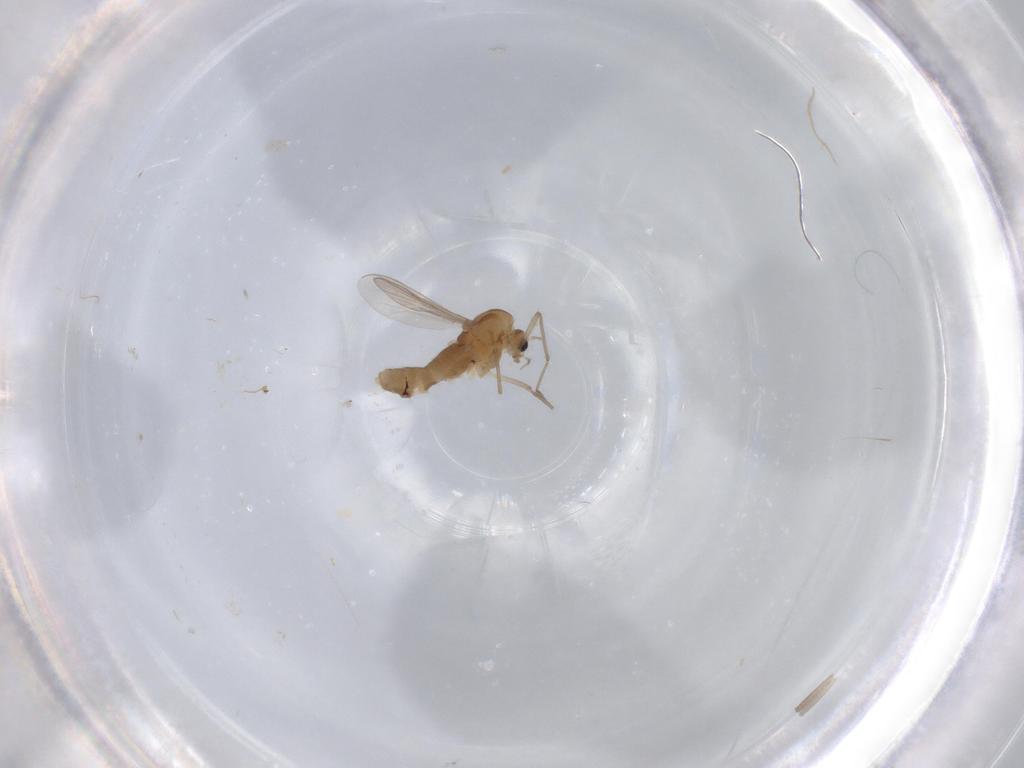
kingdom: Animalia
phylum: Arthropoda
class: Insecta
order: Diptera
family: Chironomidae
